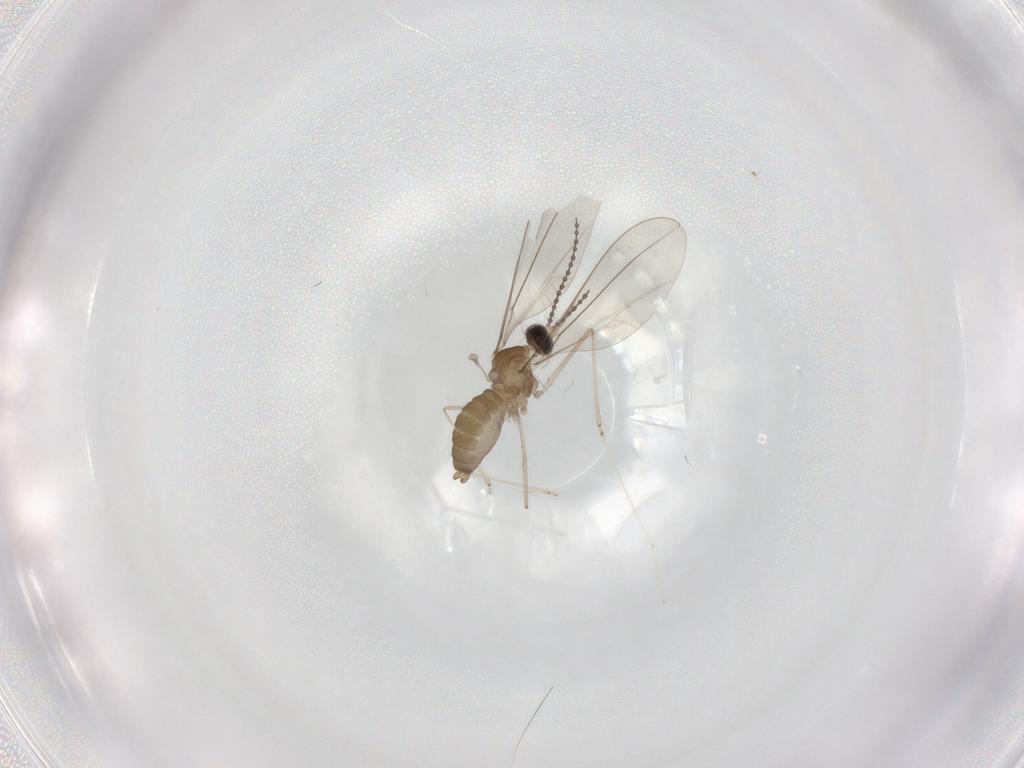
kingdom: Animalia
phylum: Arthropoda
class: Insecta
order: Diptera
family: Cecidomyiidae
